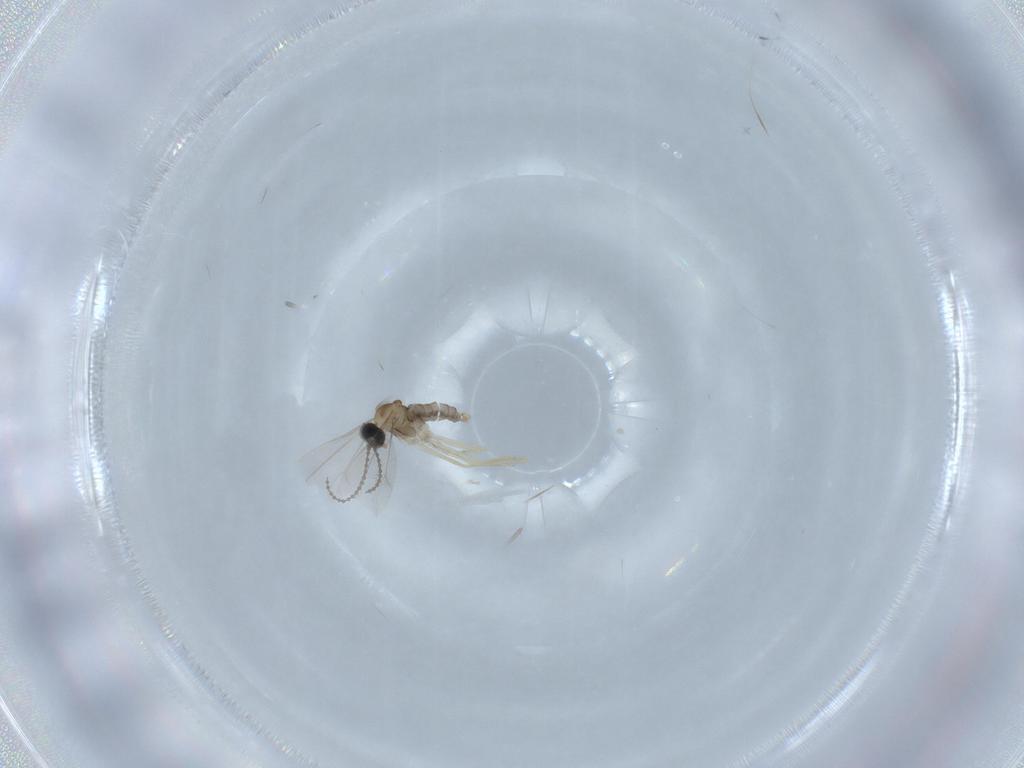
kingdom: Animalia
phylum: Arthropoda
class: Insecta
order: Diptera
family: Cecidomyiidae
